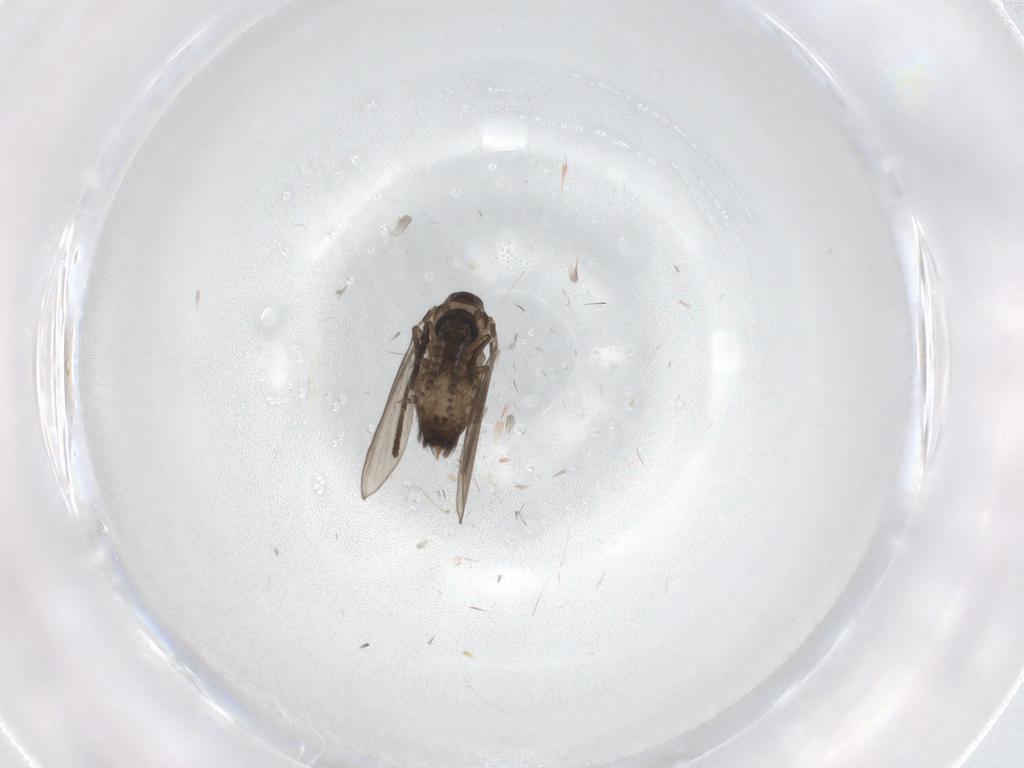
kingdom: Animalia
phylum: Arthropoda
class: Insecta
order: Diptera
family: Psychodidae
